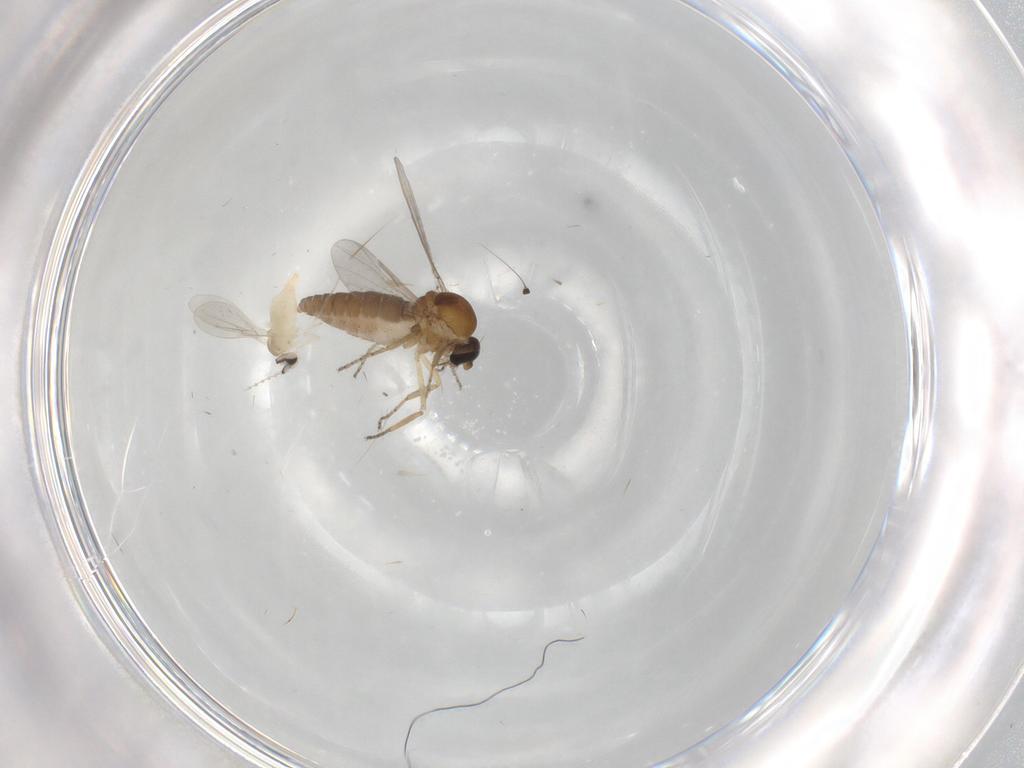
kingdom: Animalia
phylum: Arthropoda
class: Insecta
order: Diptera
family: Ceratopogonidae
